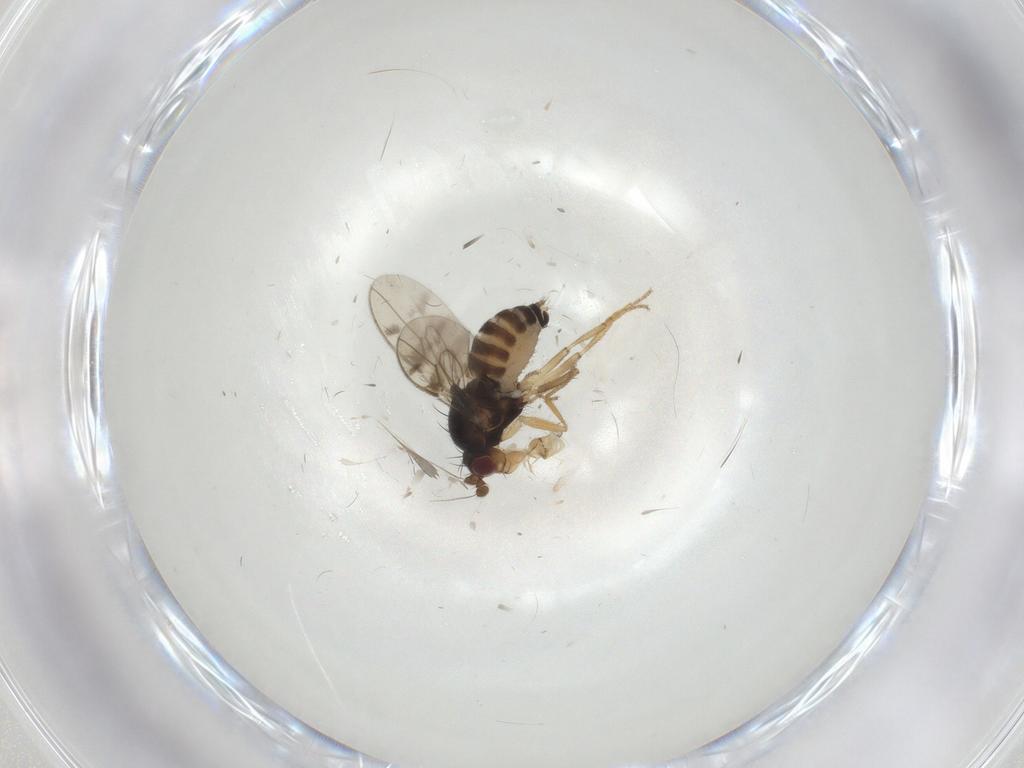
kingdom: Animalia
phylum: Arthropoda
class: Insecta
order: Diptera
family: Sphaeroceridae
